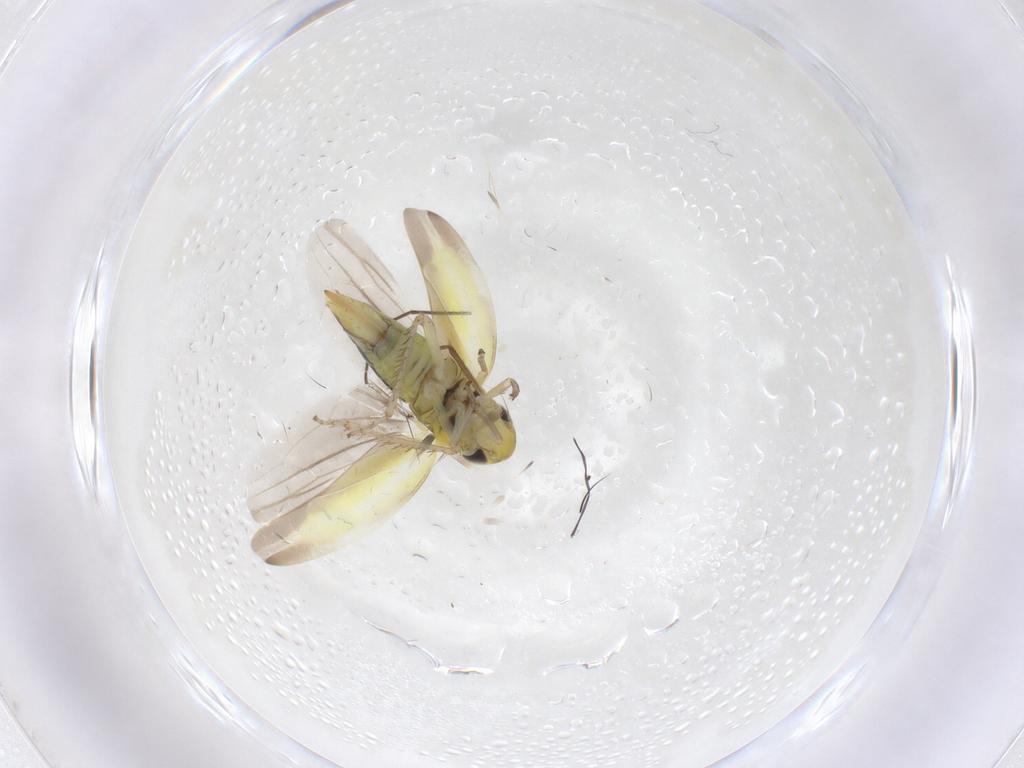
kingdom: Animalia
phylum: Arthropoda
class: Insecta
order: Hemiptera
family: Cicadellidae
